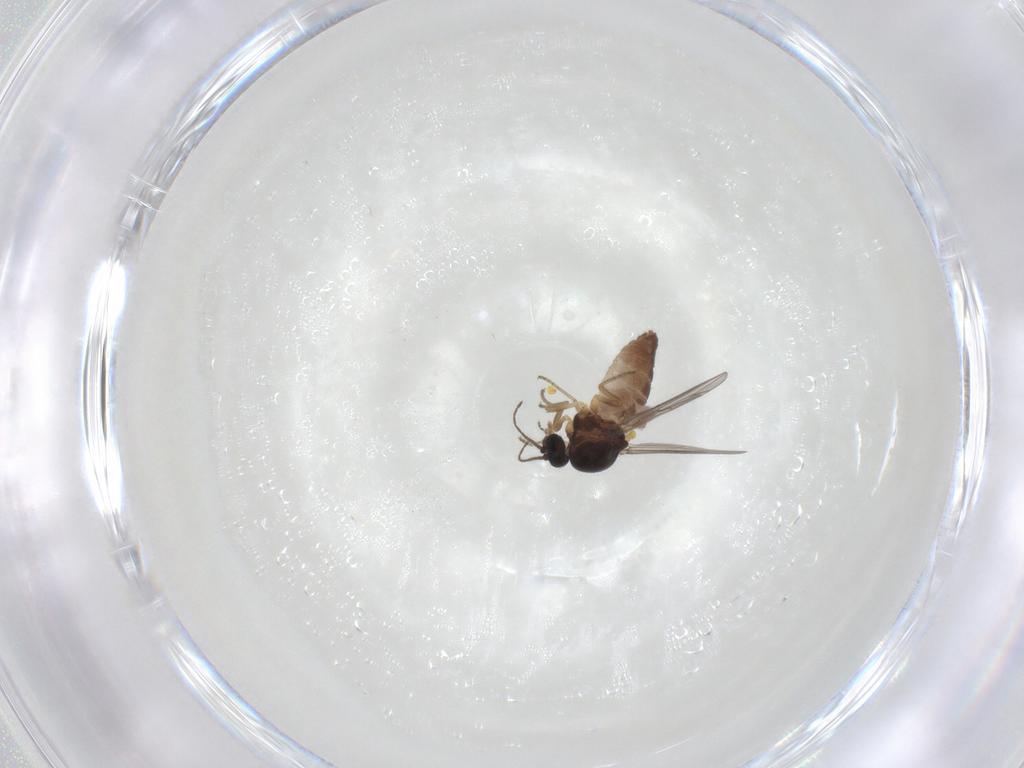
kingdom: Animalia
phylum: Arthropoda
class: Insecta
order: Diptera
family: Ceratopogonidae
